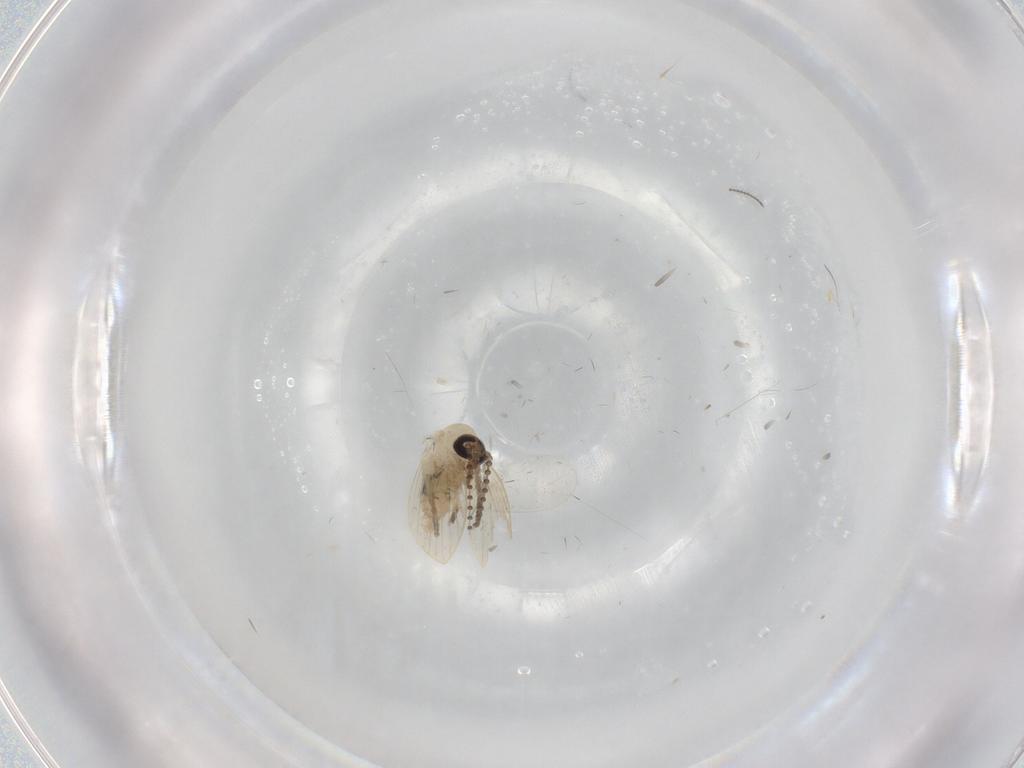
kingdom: Animalia
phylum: Arthropoda
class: Insecta
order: Diptera
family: Psychodidae
